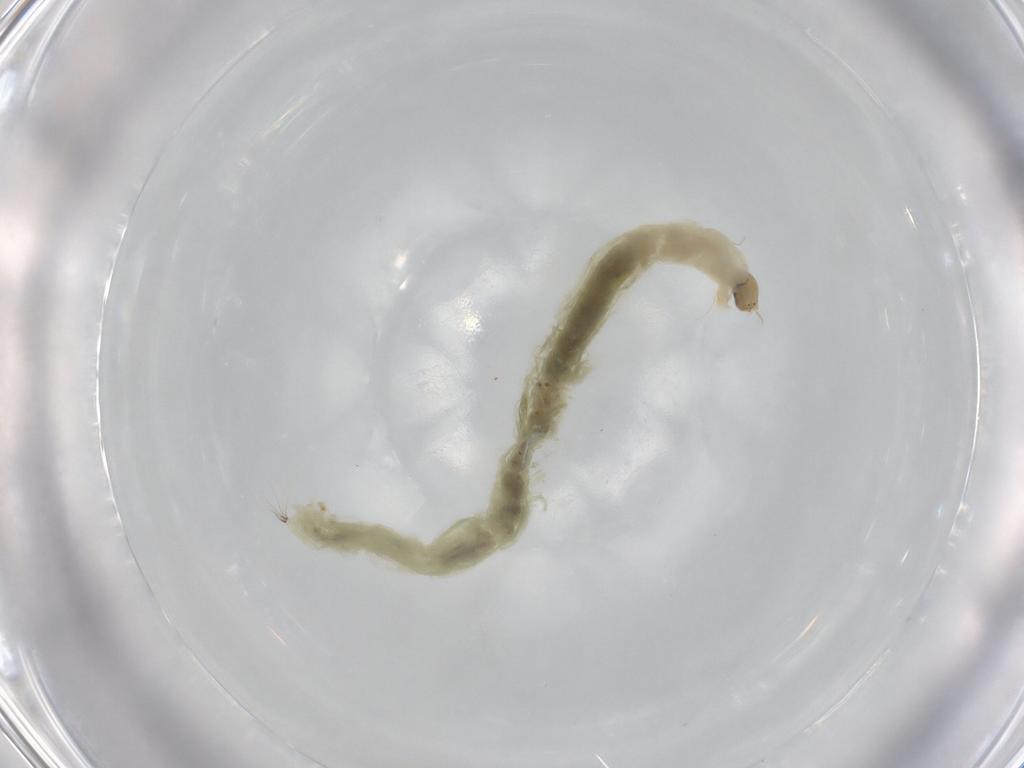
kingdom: Animalia
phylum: Arthropoda
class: Insecta
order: Diptera
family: Chironomidae
